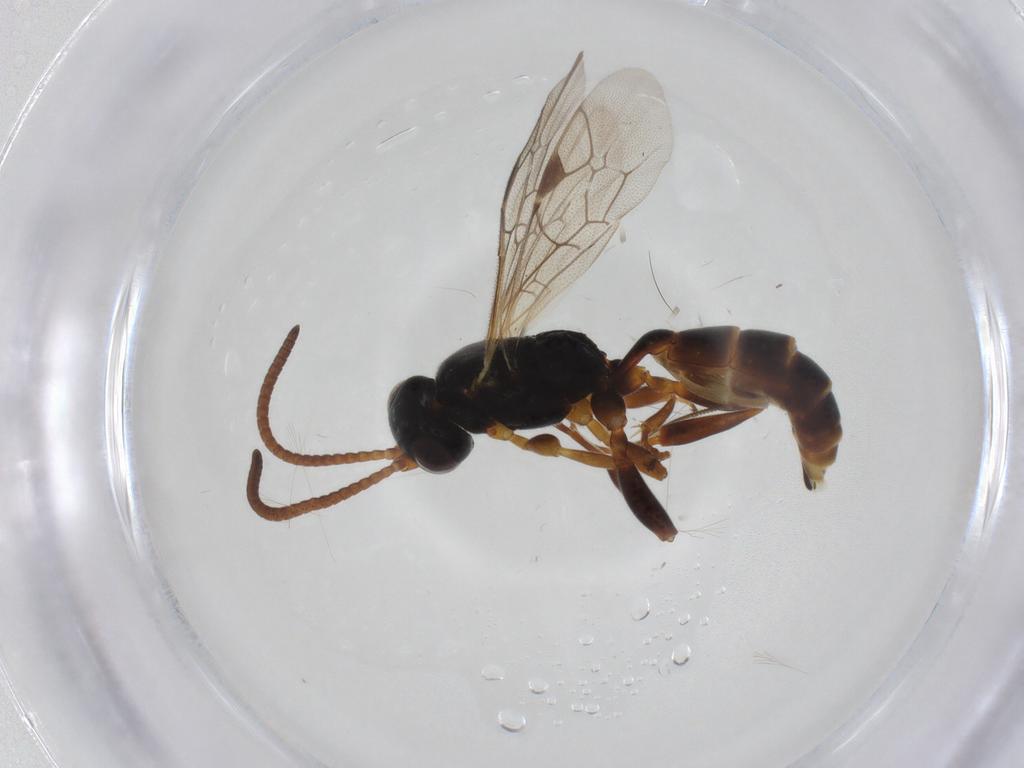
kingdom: Animalia
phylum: Arthropoda
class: Insecta
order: Hymenoptera
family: Ichneumonidae
